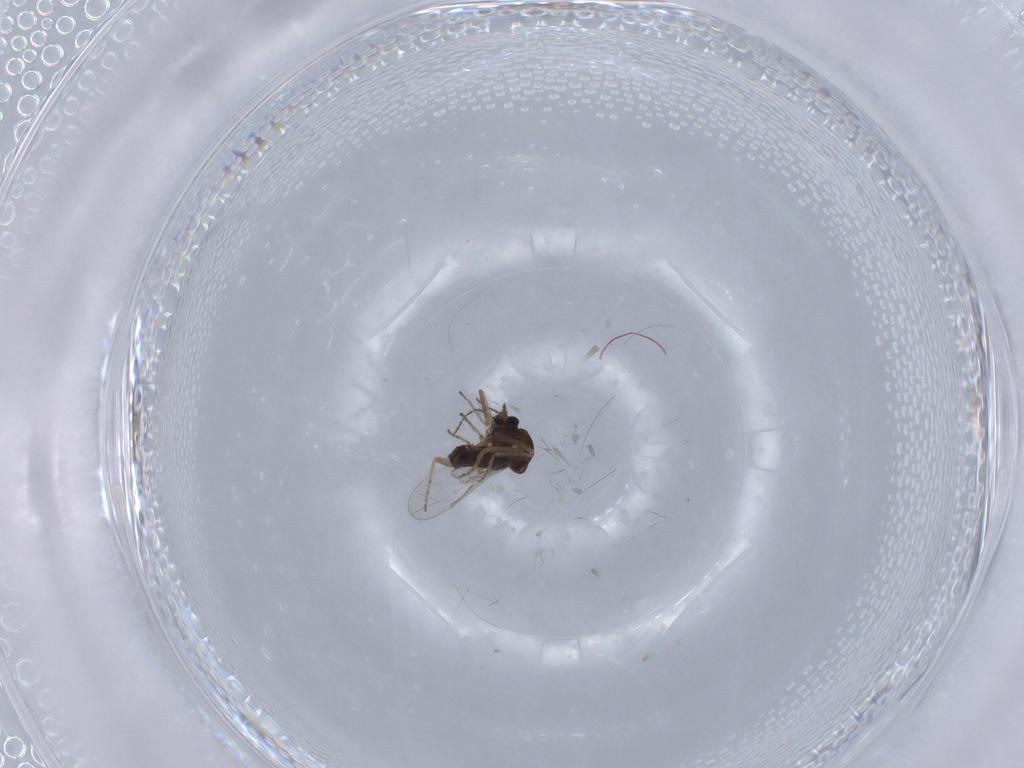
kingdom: Animalia
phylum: Arthropoda
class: Insecta
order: Diptera
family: Ceratopogonidae
